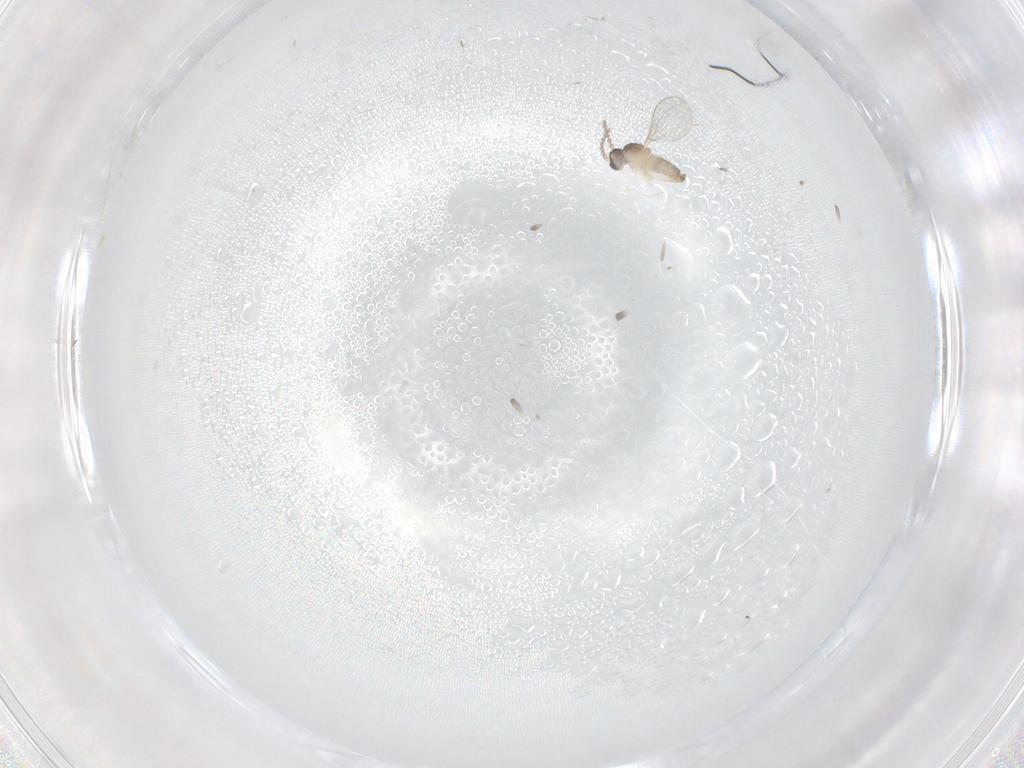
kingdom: Animalia
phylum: Arthropoda
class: Insecta
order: Diptera
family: Cecidomyiidae
